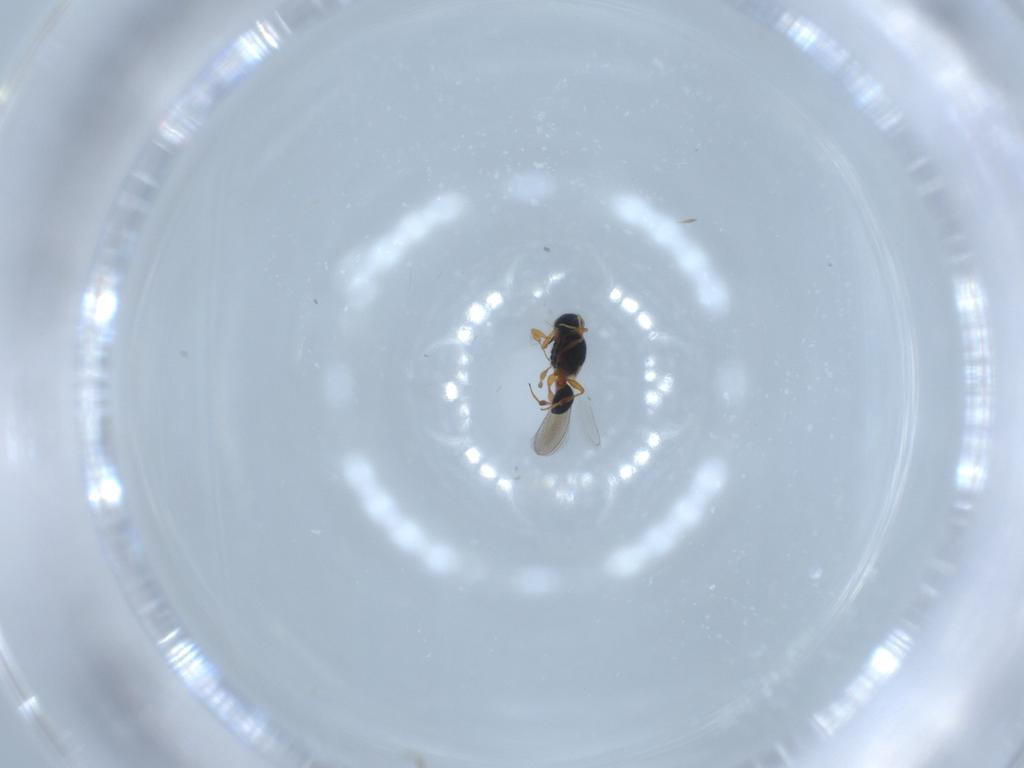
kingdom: Animalia
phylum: Arthropoda
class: Insecta
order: Hymenoptera
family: Platygastridae
